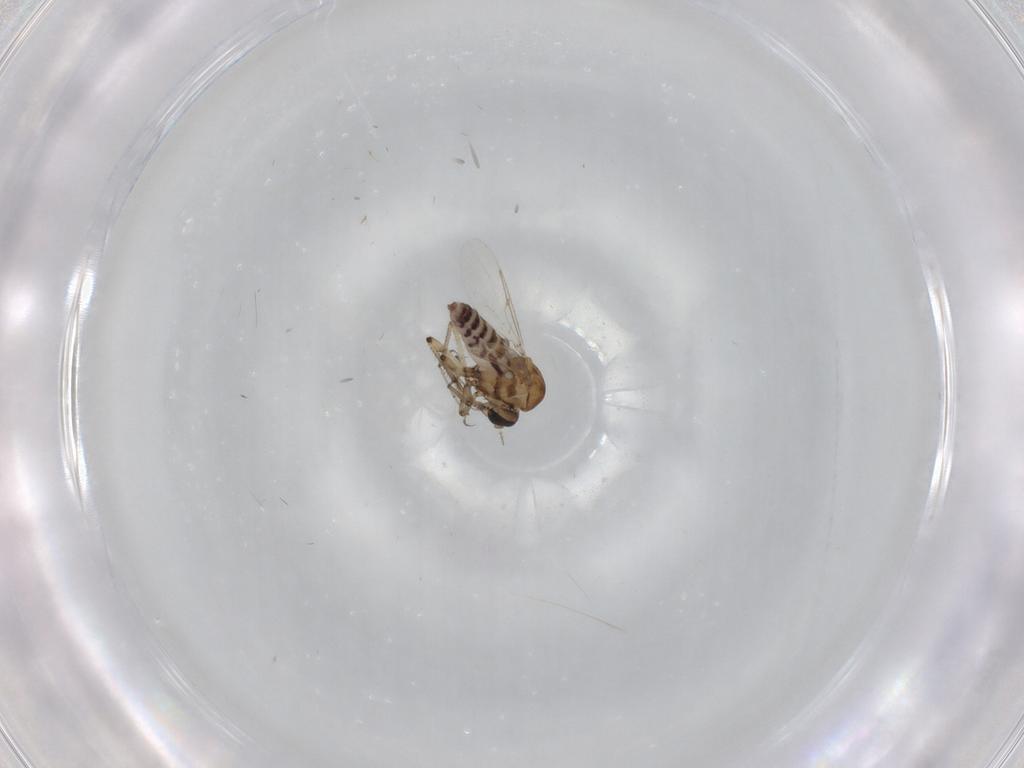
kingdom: Animalia
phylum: Arthropoda
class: Insecta
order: Diptera
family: Ceratopogonidae
